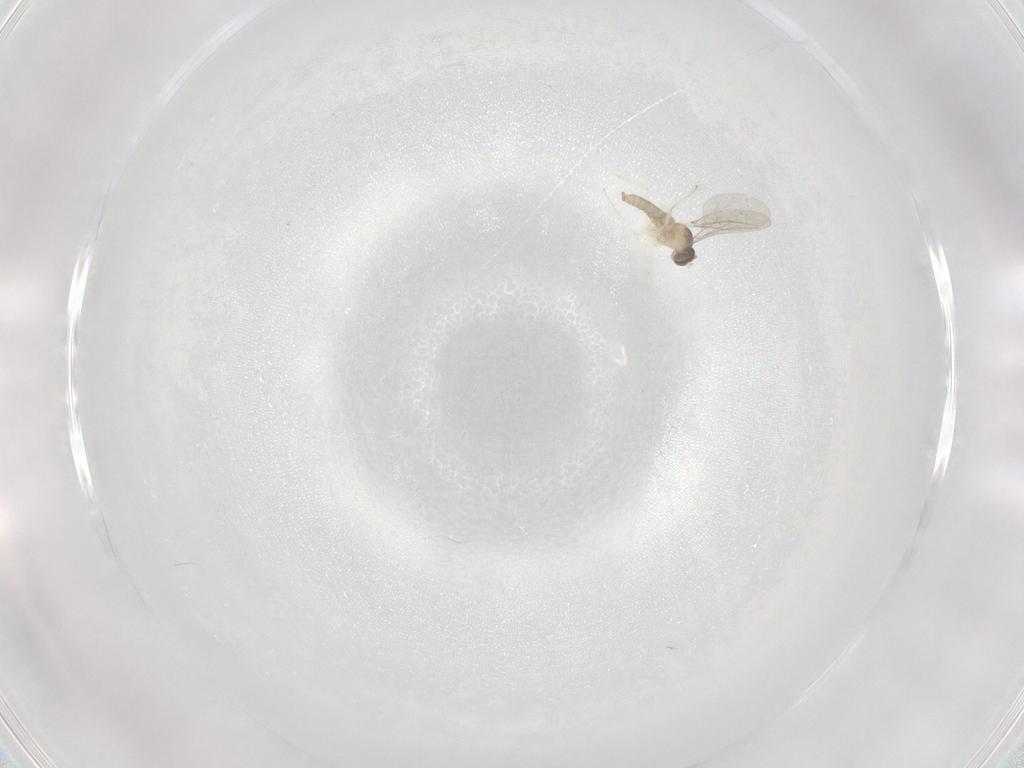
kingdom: Animalia
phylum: Arthropoda
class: Insecta
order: Diptera
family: Cecidomyiidae
